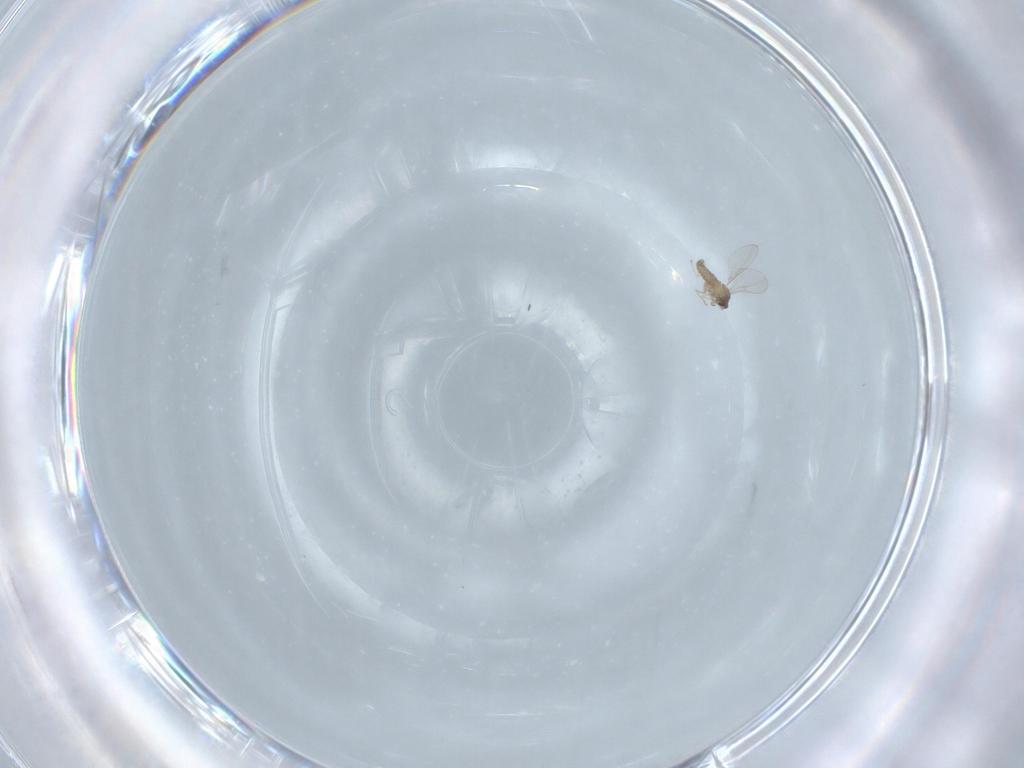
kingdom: Animalia
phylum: Arthropoda
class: Insecta
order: Diptera
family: Cecidomyiidae
